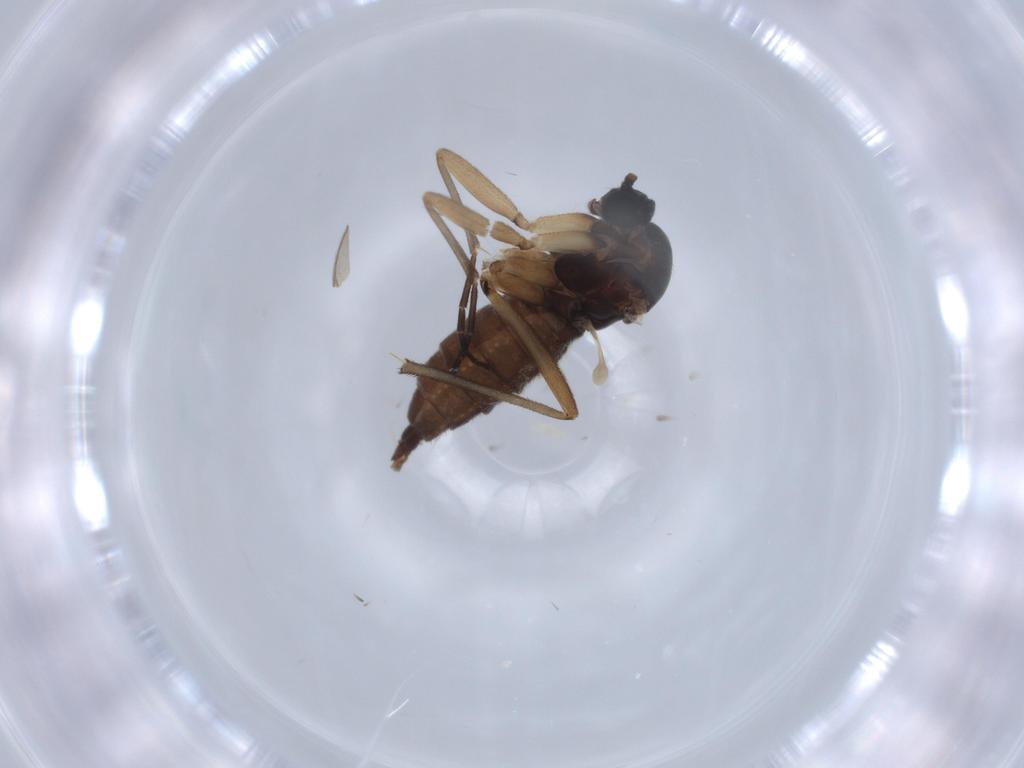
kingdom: Animalia
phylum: Arthropoda
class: Insecta
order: Diptera
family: Sciaridae
